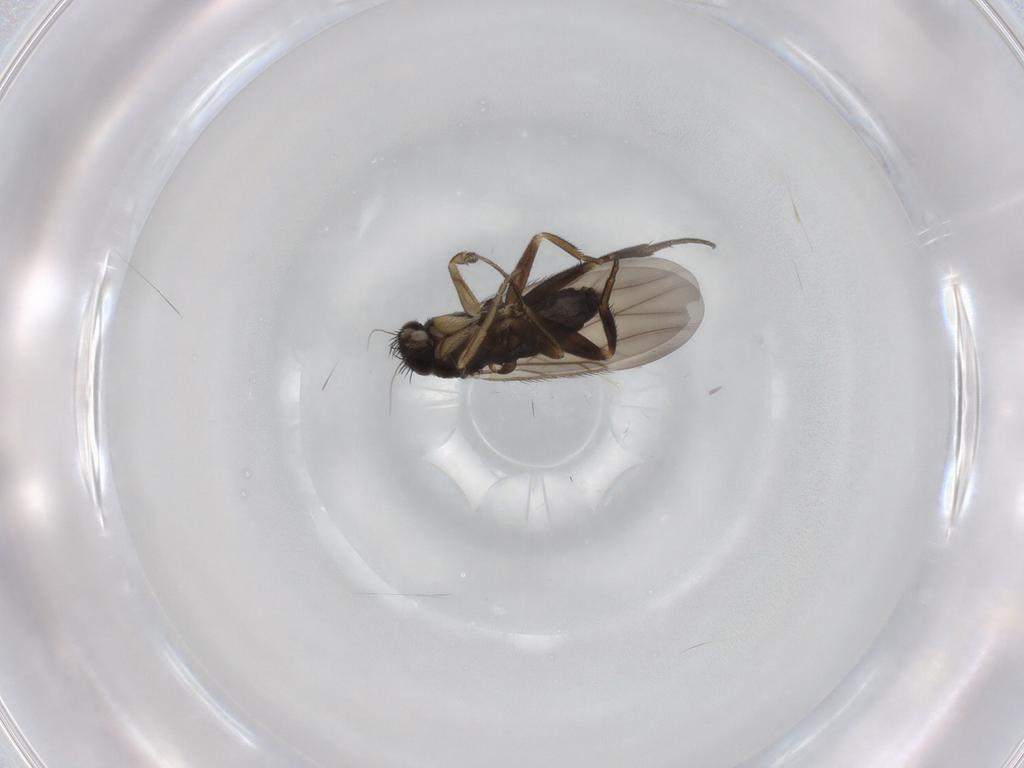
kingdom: Animalia
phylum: Arthropoda
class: Insecta
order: Diptera
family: Phoridae
